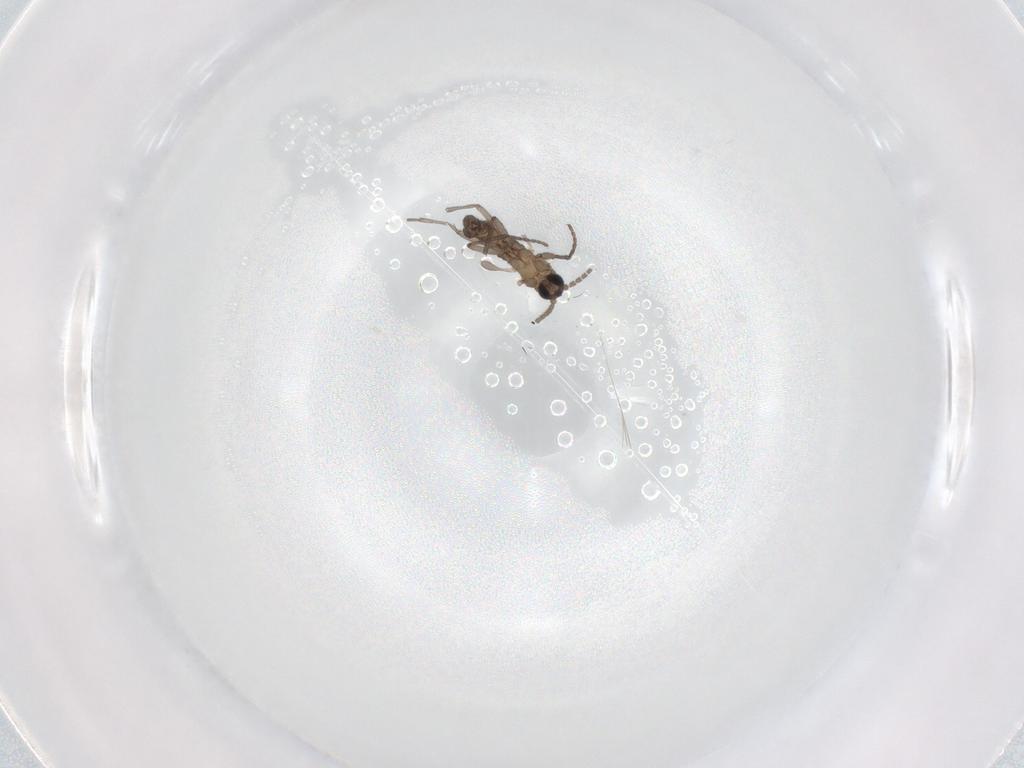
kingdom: Animalia
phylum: Arthropoda
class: Insecta
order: Diptera
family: Sciaridae
